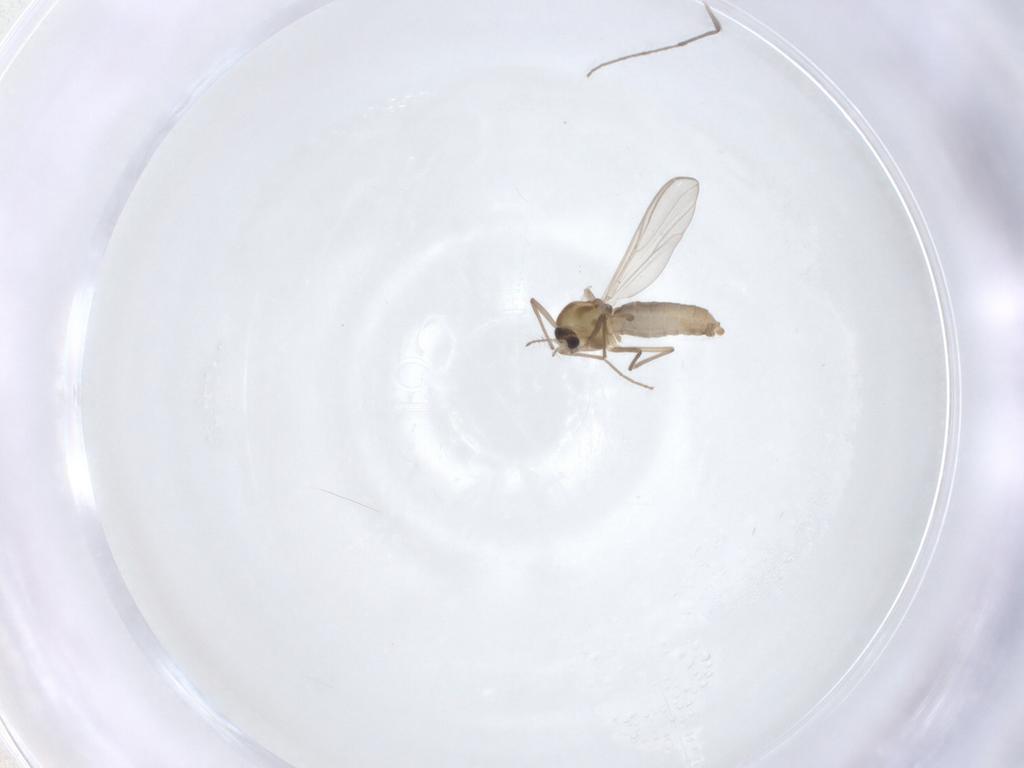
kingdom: Animalia
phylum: Arthropoda
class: Insecta
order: Diptera
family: Chironomidae
